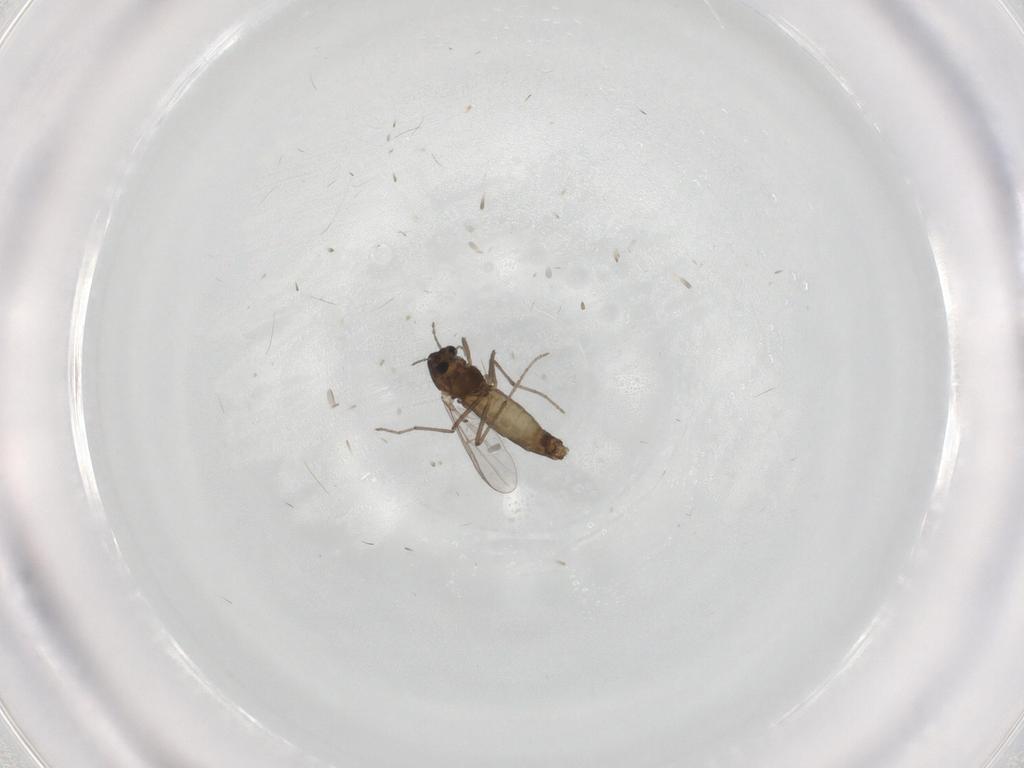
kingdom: Animalia
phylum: Arthropoda
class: Insecta
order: Diptera
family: Chironomidae
